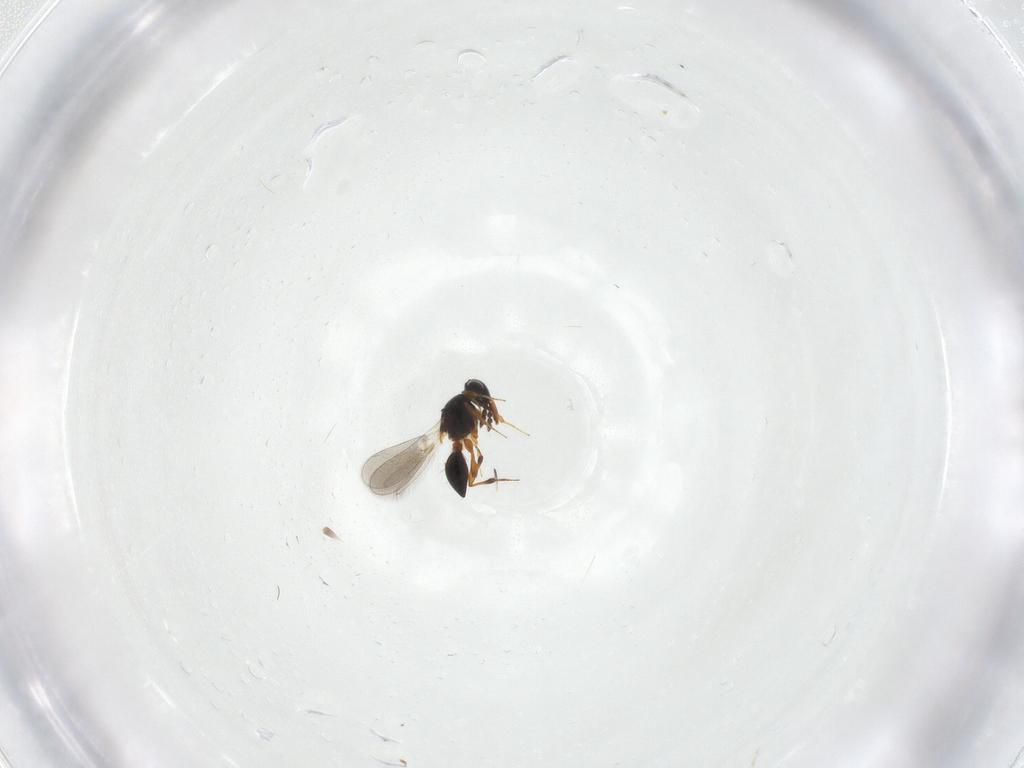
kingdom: Animalia
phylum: Arthropoda
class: Insecta
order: Hymenoptera
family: Platygastridae
